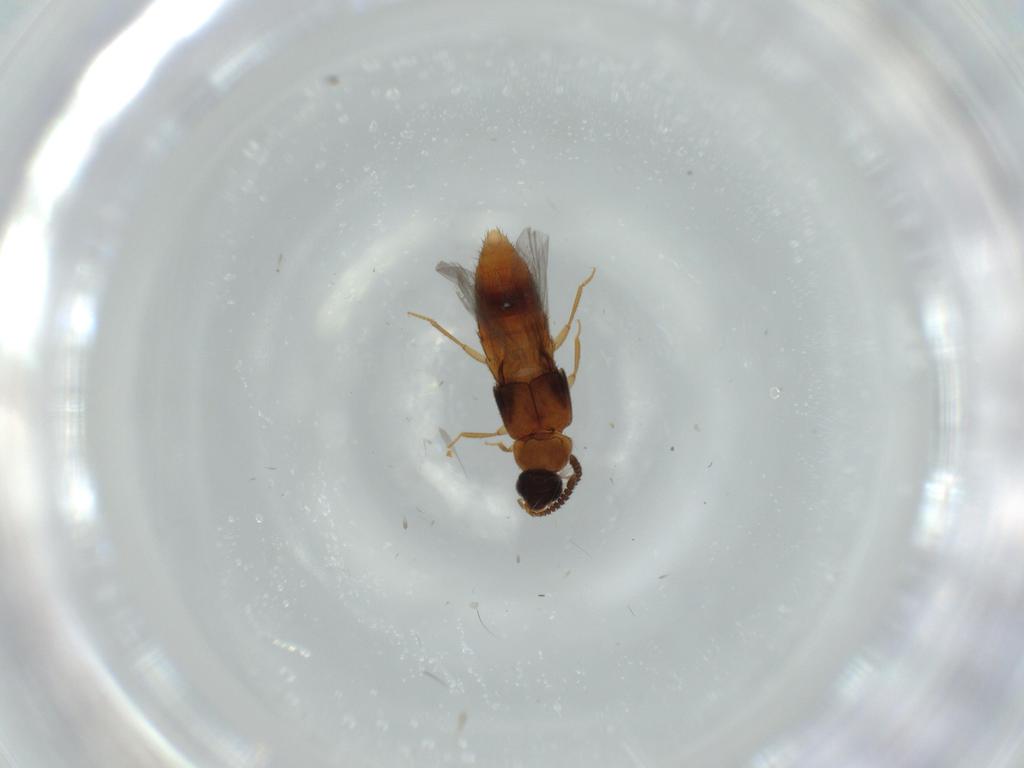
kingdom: Animalia
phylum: Arthropoda
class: Insecta
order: Coleoptera
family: Staphylinidae
